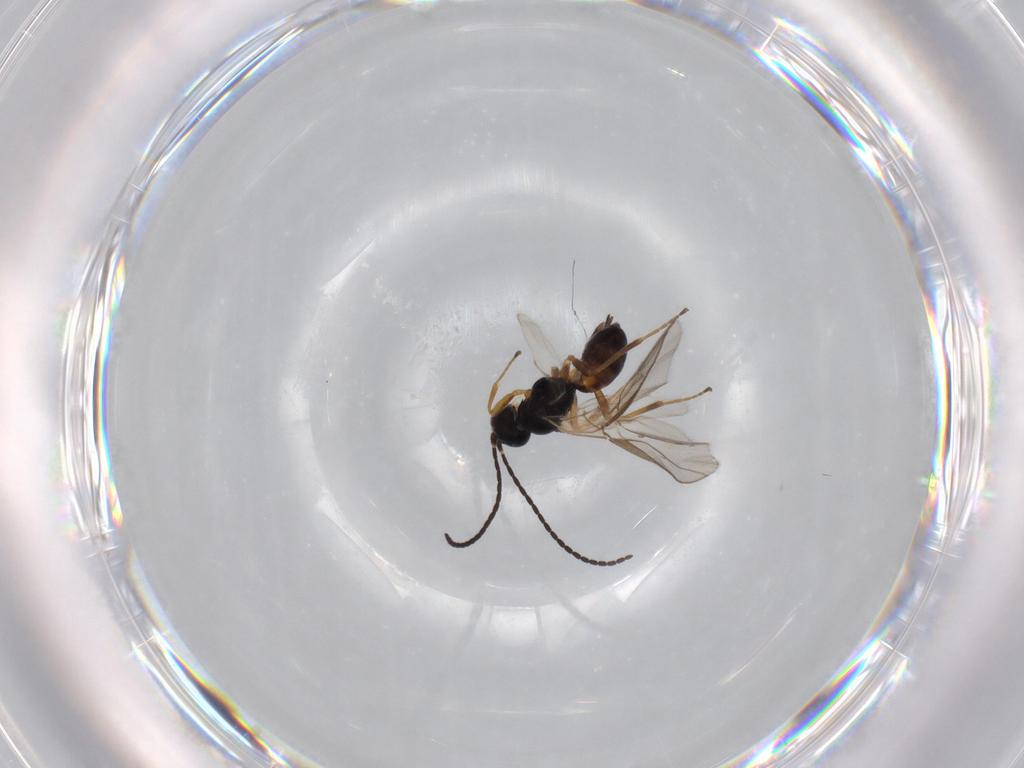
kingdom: Animalia
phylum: Arthropoda
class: Insecta
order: Hymenoptera
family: Braconidae
